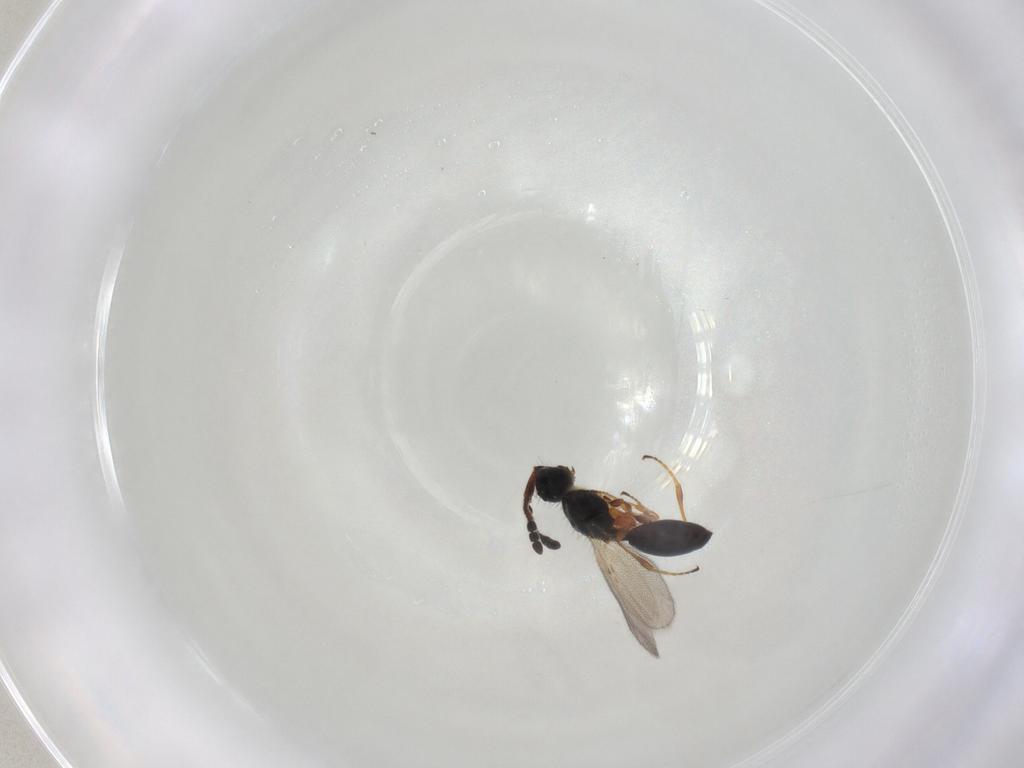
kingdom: Animalia
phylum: Arthropoda
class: Insecta
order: Hymenoptera
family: Diapriidae
